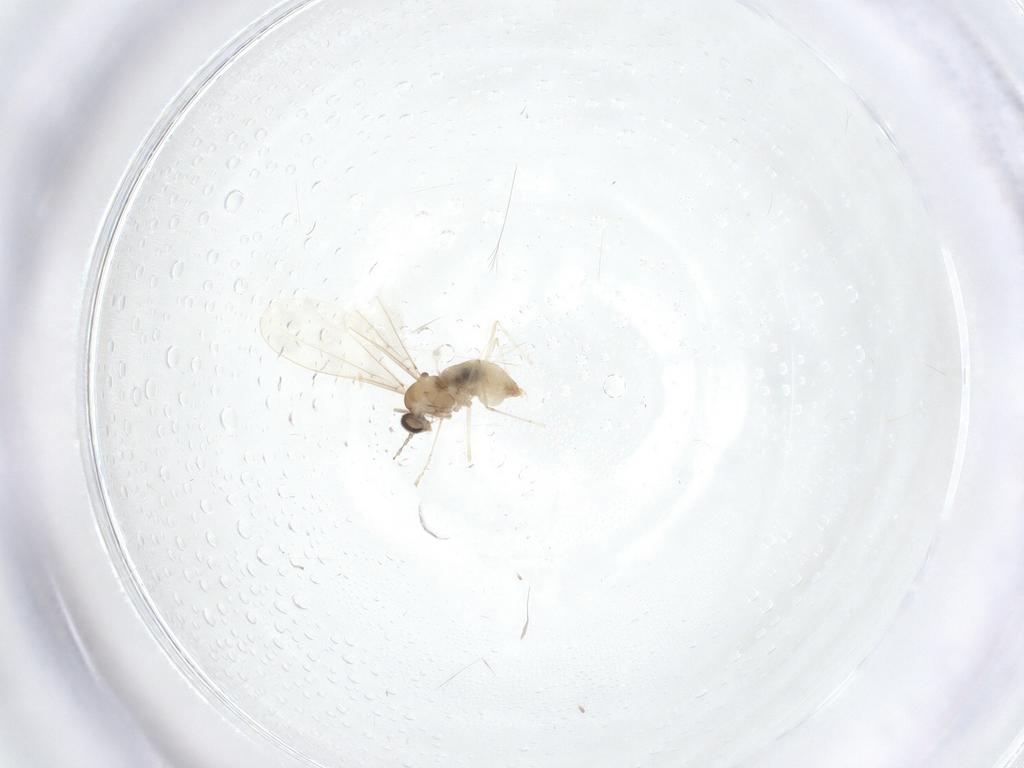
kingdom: Animalia
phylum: Arthropoda
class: Insecta
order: Diptera
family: Cecidomyiidae
